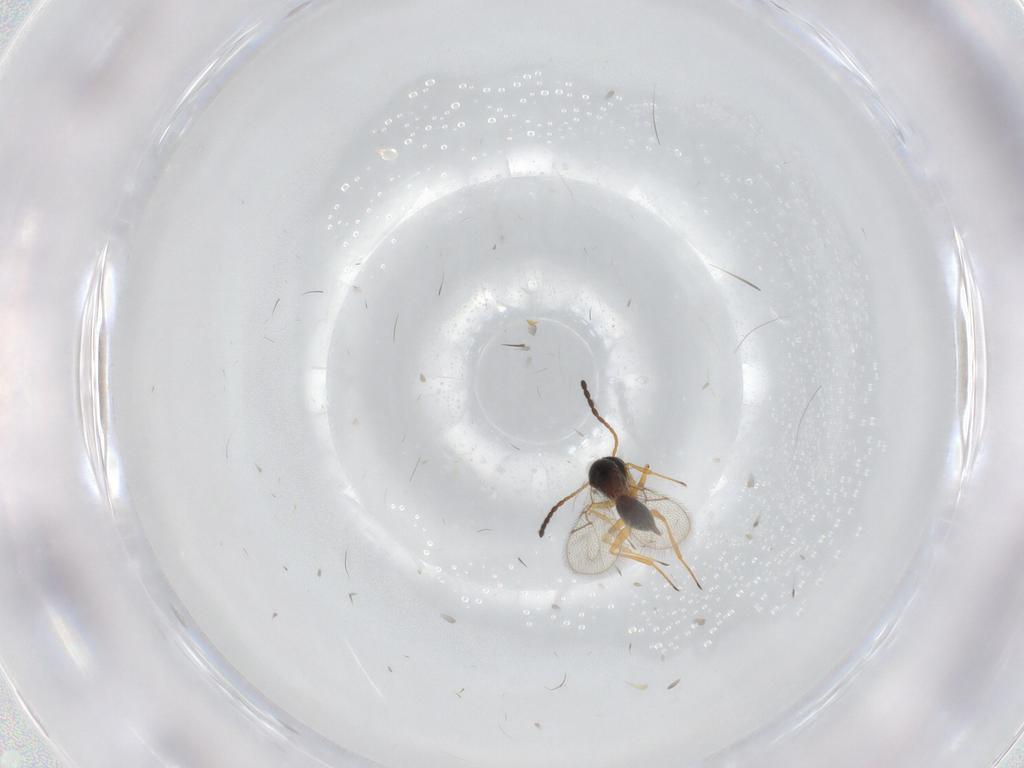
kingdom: Animalia
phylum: Arthropoda
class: Insecta
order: Hymenoptera
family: Figitidae
